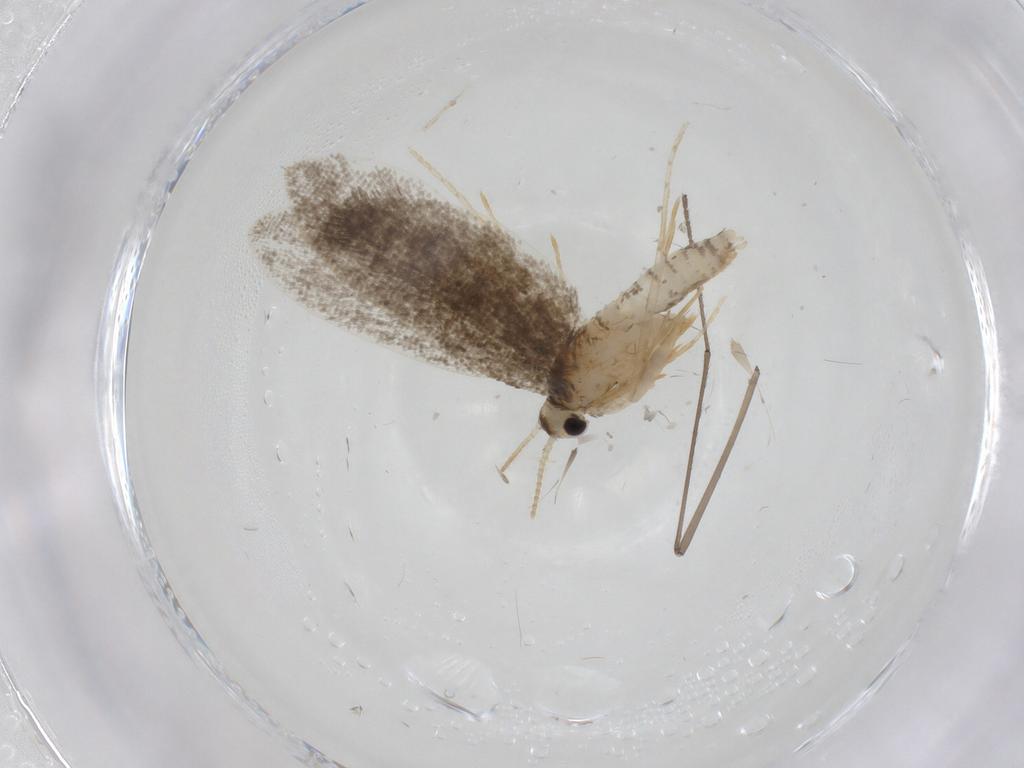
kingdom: Animalia
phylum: Arthropoda
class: Insecta
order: Lepidoptera
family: Psychidae
